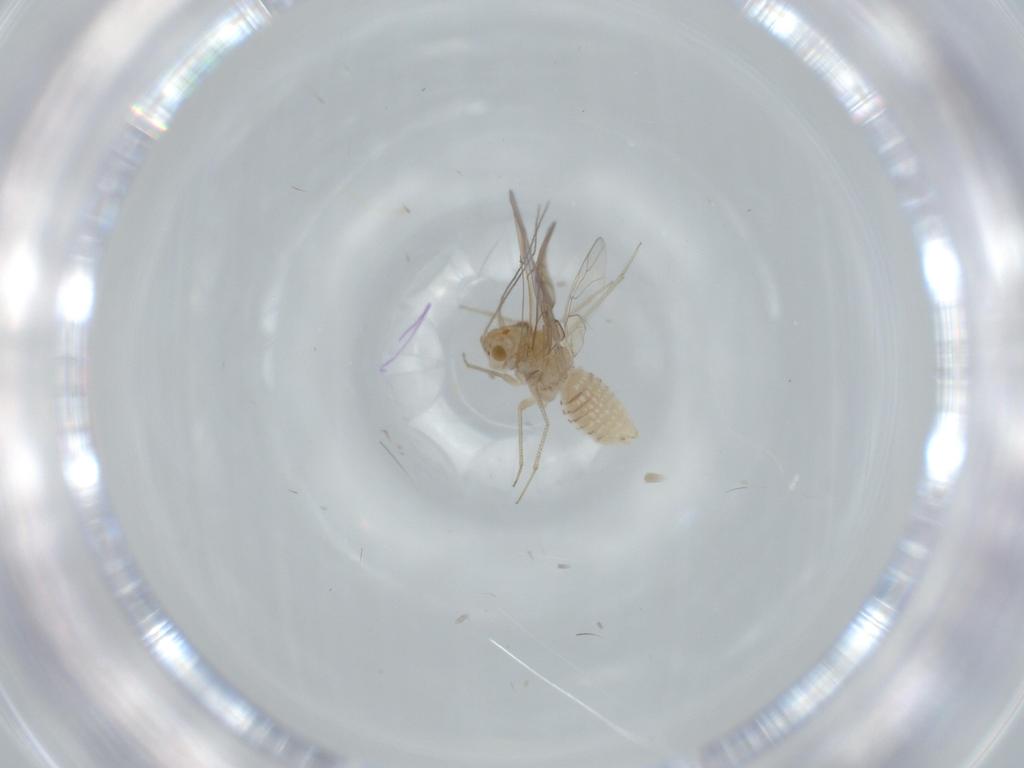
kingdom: Animalia
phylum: Arthropoda
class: Insecta
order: Psocodea
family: Lachesillidae
